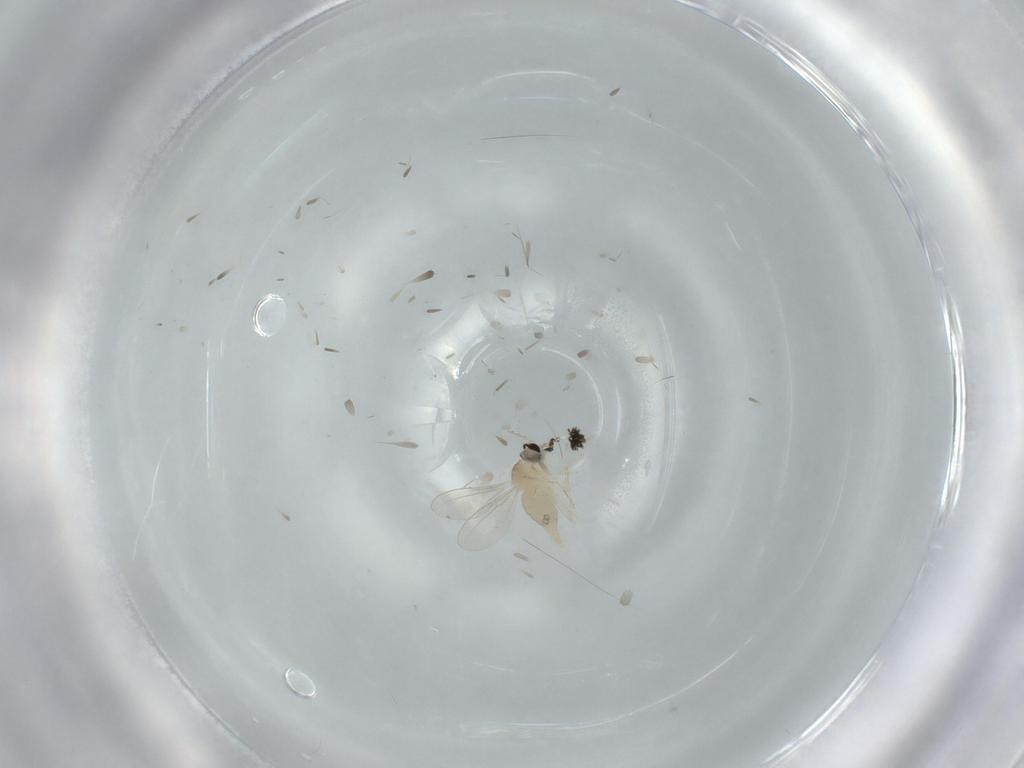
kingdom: Animalia
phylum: Arthropoda
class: Insecta
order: Diptera
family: Cecidomyiidae
